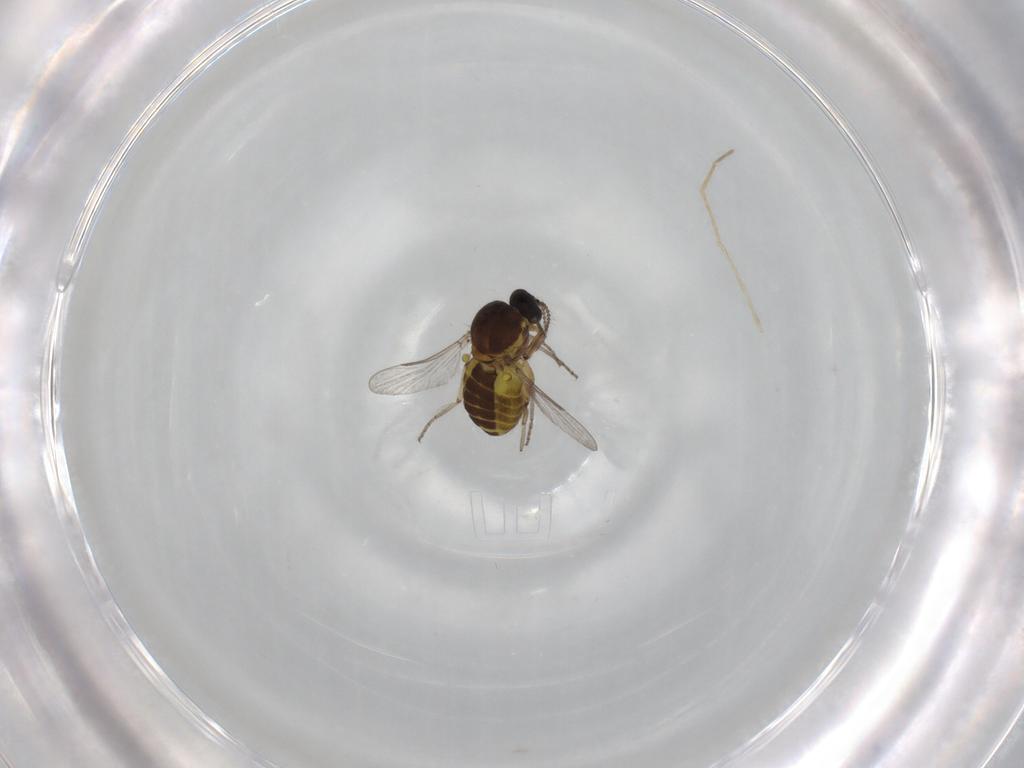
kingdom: Animalia
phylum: Arthropoda
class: Insecta
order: Diptera
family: Ceratopogonidae
